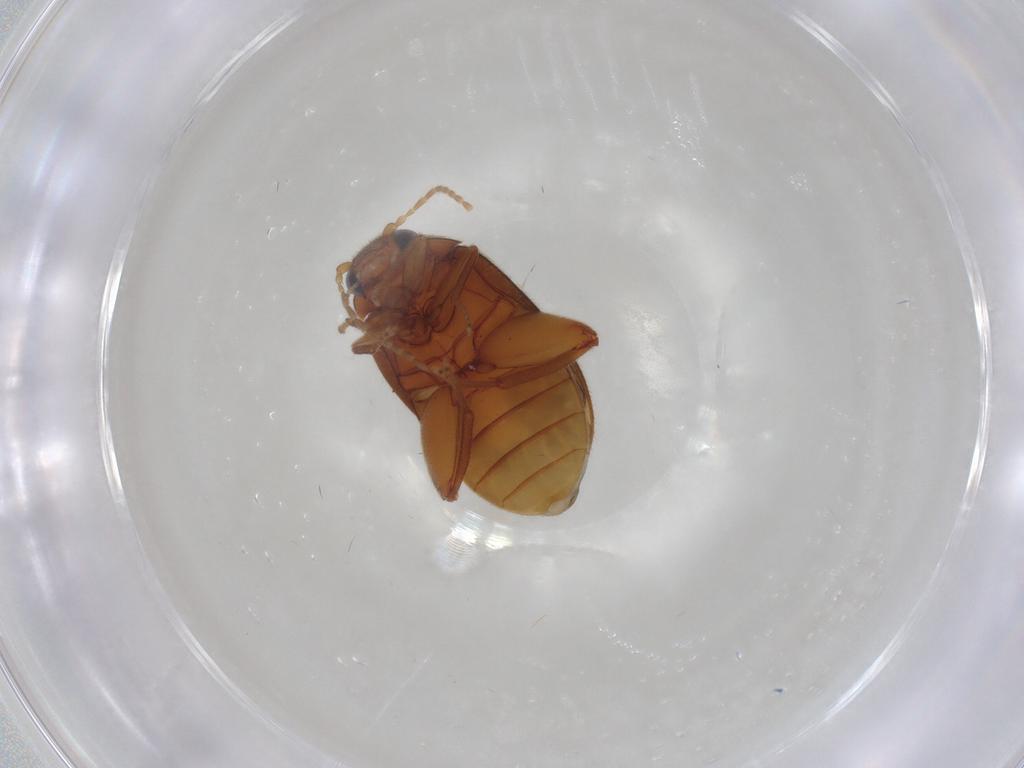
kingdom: Animalia
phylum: Arthropoda
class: Insecta
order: Coleoptera
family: Scirtidae
